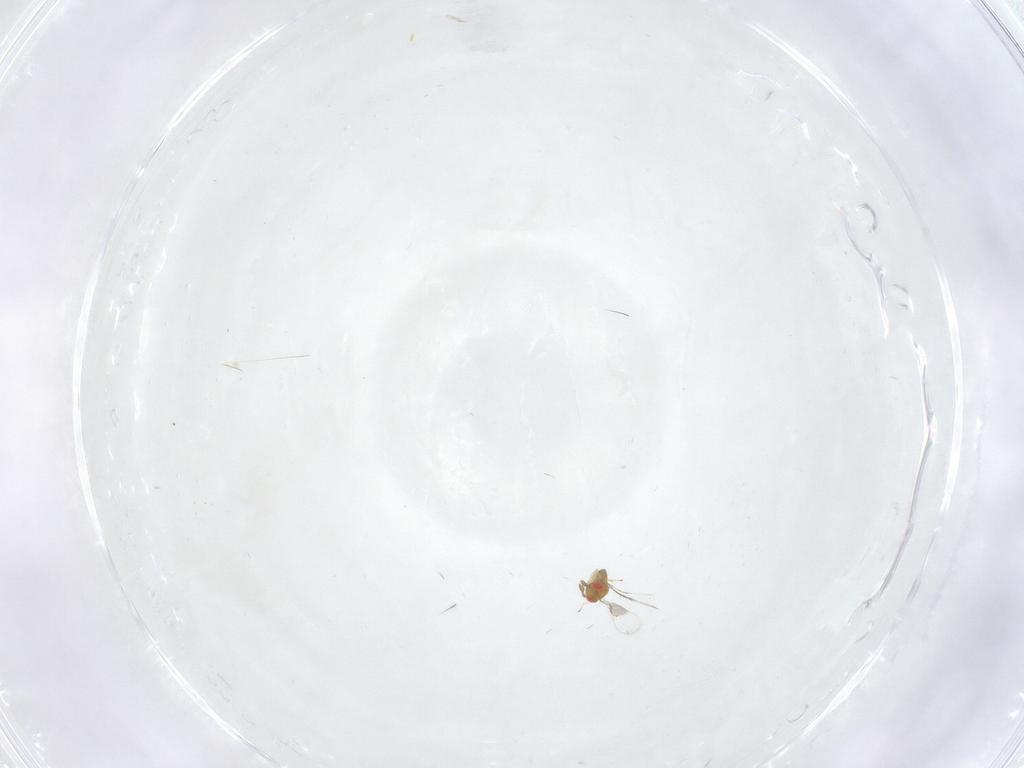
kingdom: Animalia
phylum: Arthropoda
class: Insecta
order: Hymenoptera
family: Trichogrammatidae
